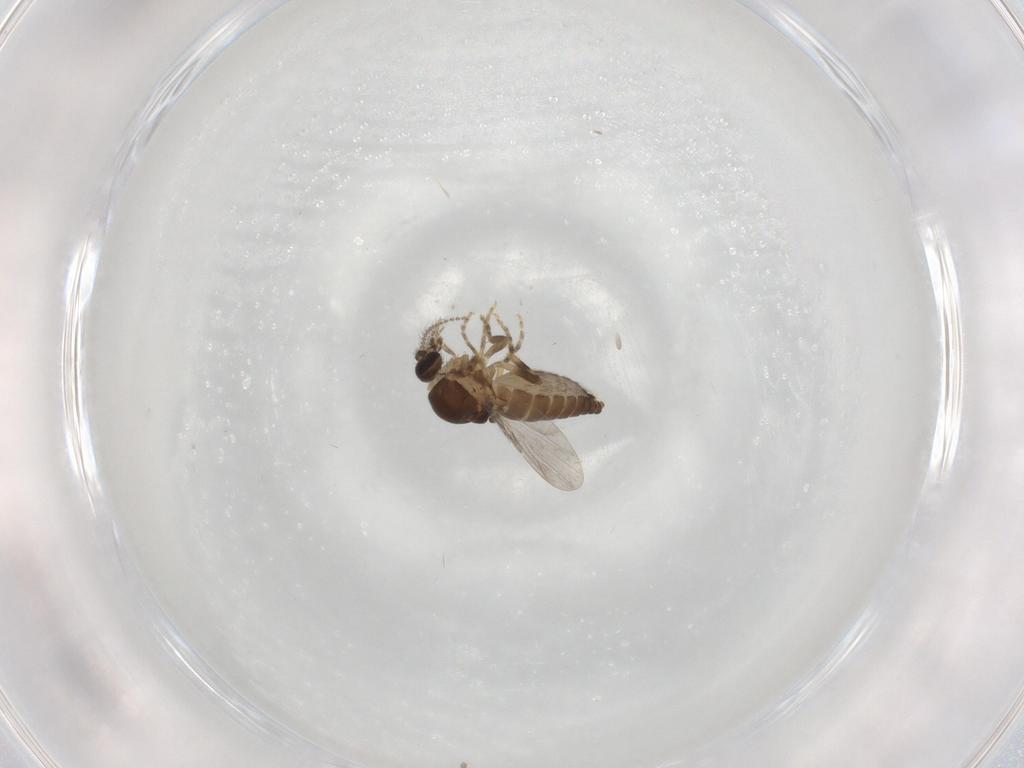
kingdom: Animalia
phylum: Arthropoda
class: Insecta
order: Diptera
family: Ceratopogonidae
